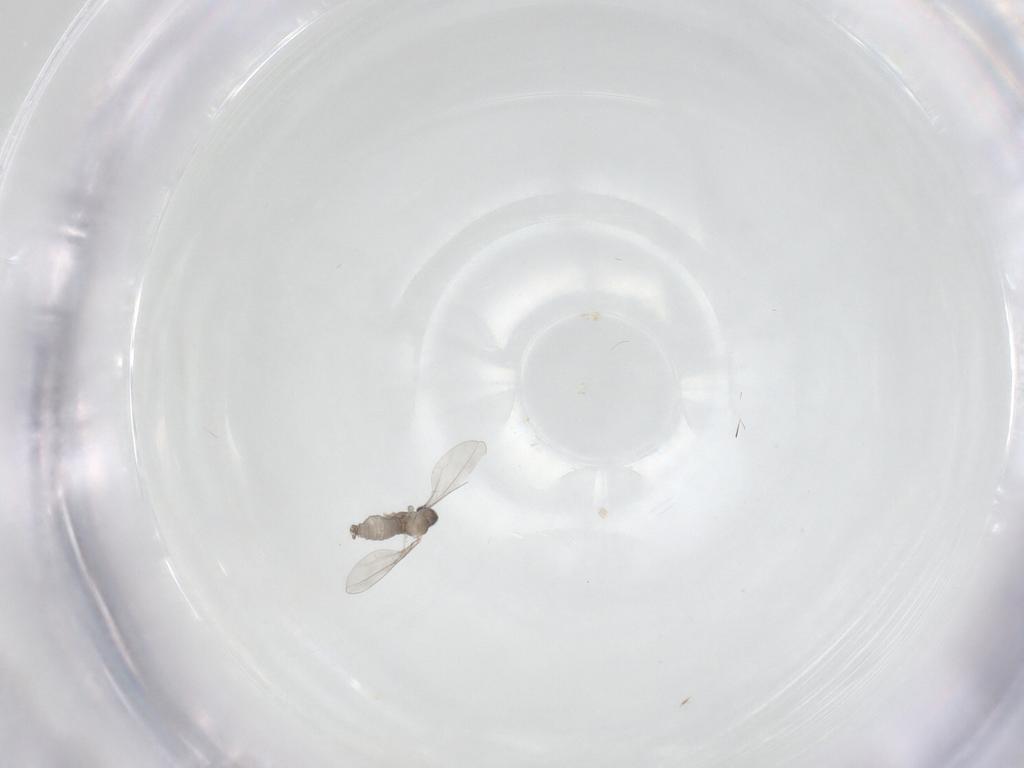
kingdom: Animalia
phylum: Arthropoda
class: Insecta
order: Diptera
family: Cecidomyiidae
